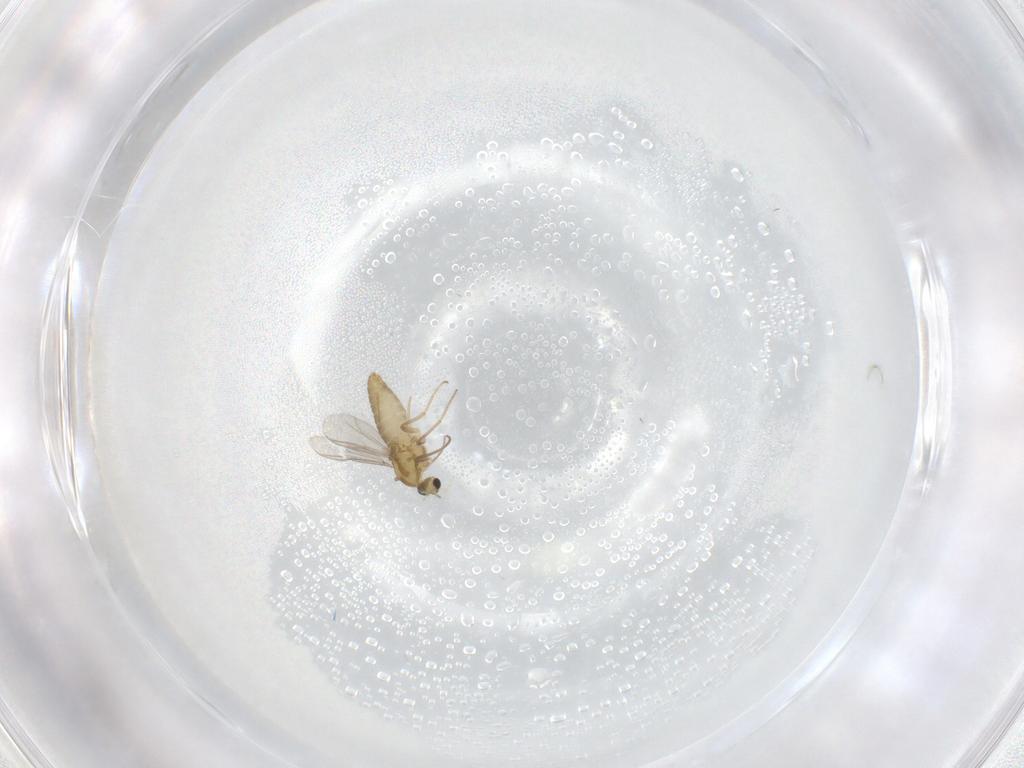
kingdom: Animalia
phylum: Arthropoda
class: Insecta
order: Diptera
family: Chironomidae
